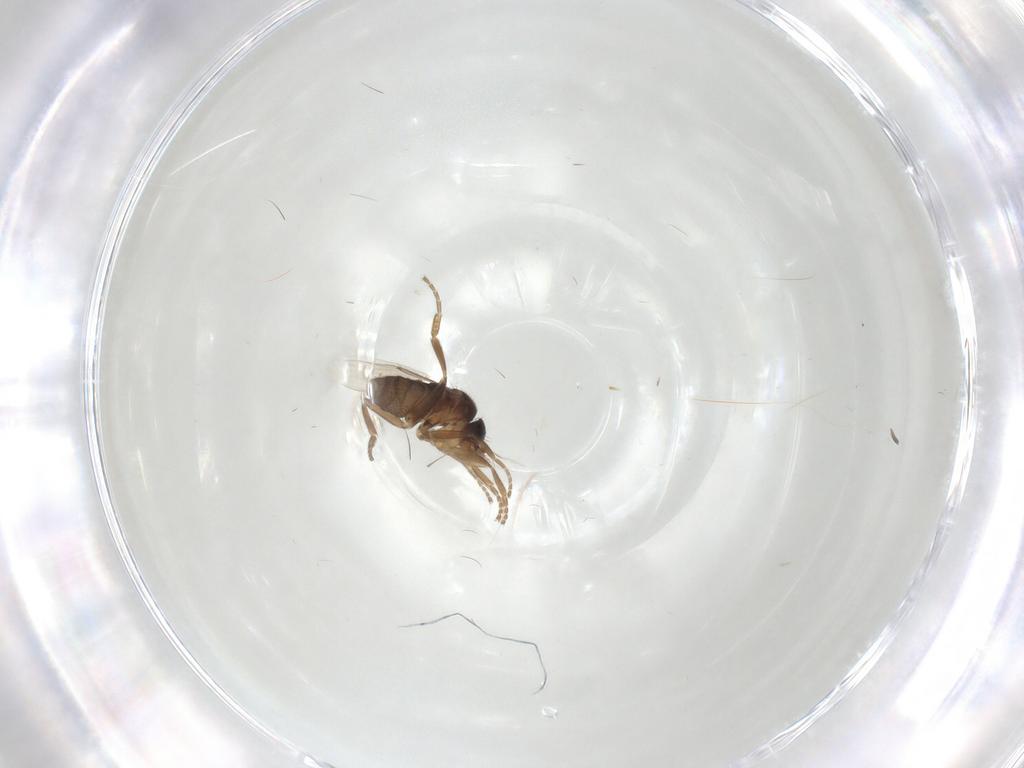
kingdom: Animalia
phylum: Arthropoda
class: Insecta
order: Diptera
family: Phoridae
